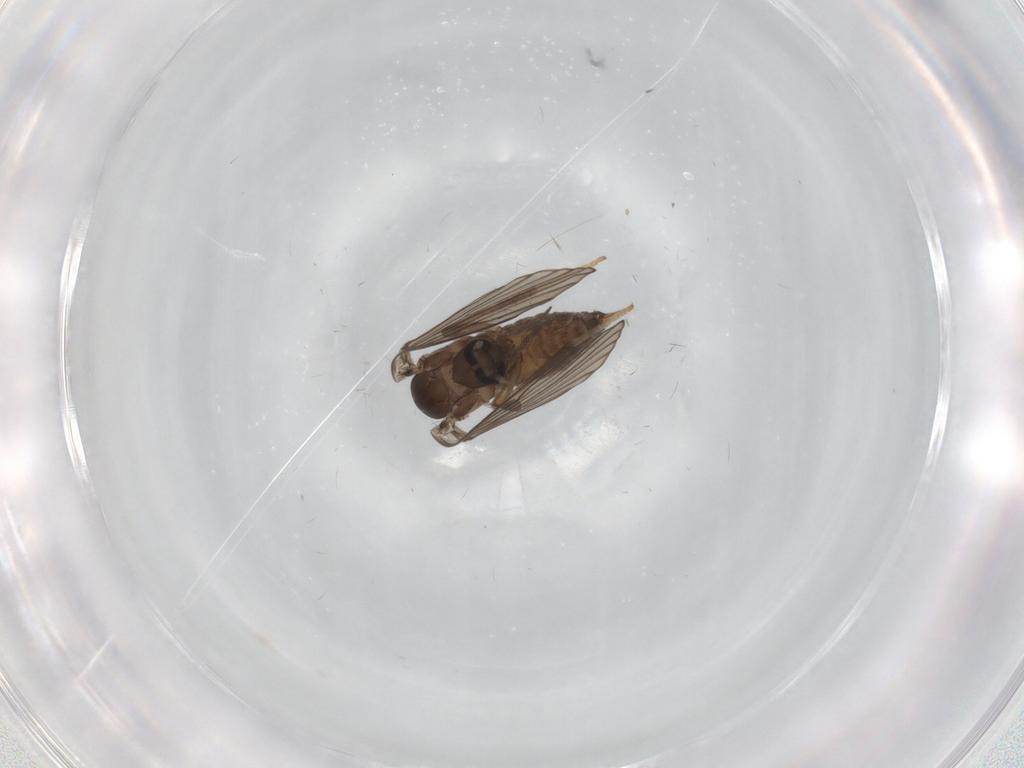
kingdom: Animalia
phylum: Arthropoda
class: Insecta
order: Diptera
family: Psychodidae
